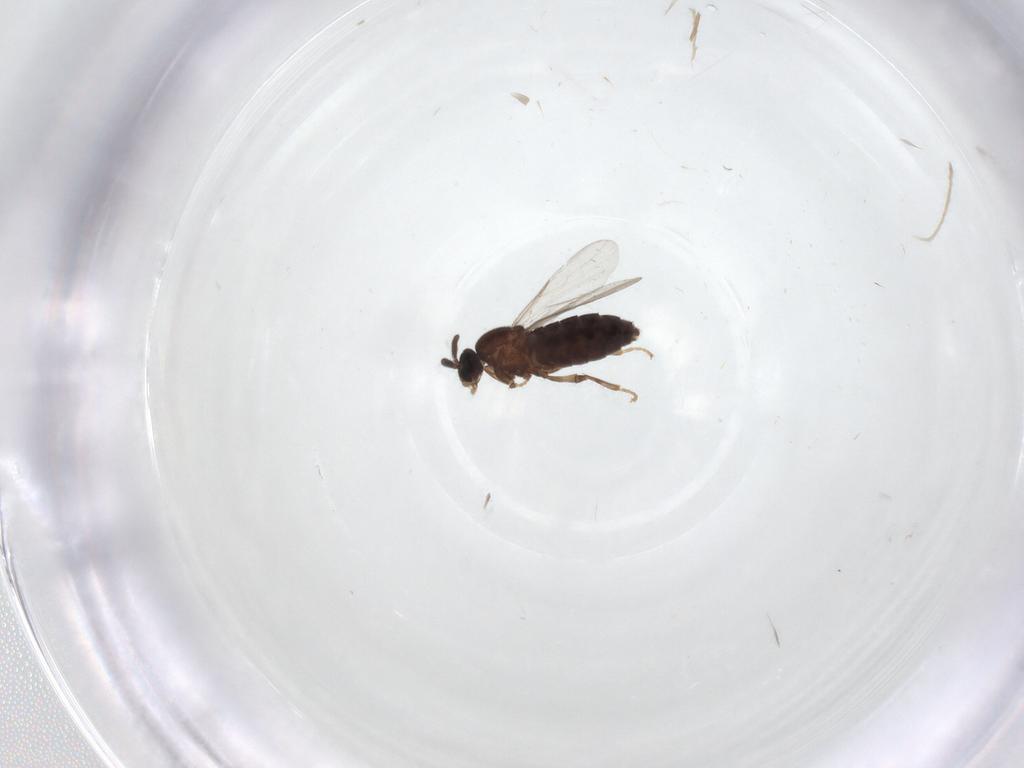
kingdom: Animalia
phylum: Arthropoda
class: Insecta
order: Diptera
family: Scatopsidae
